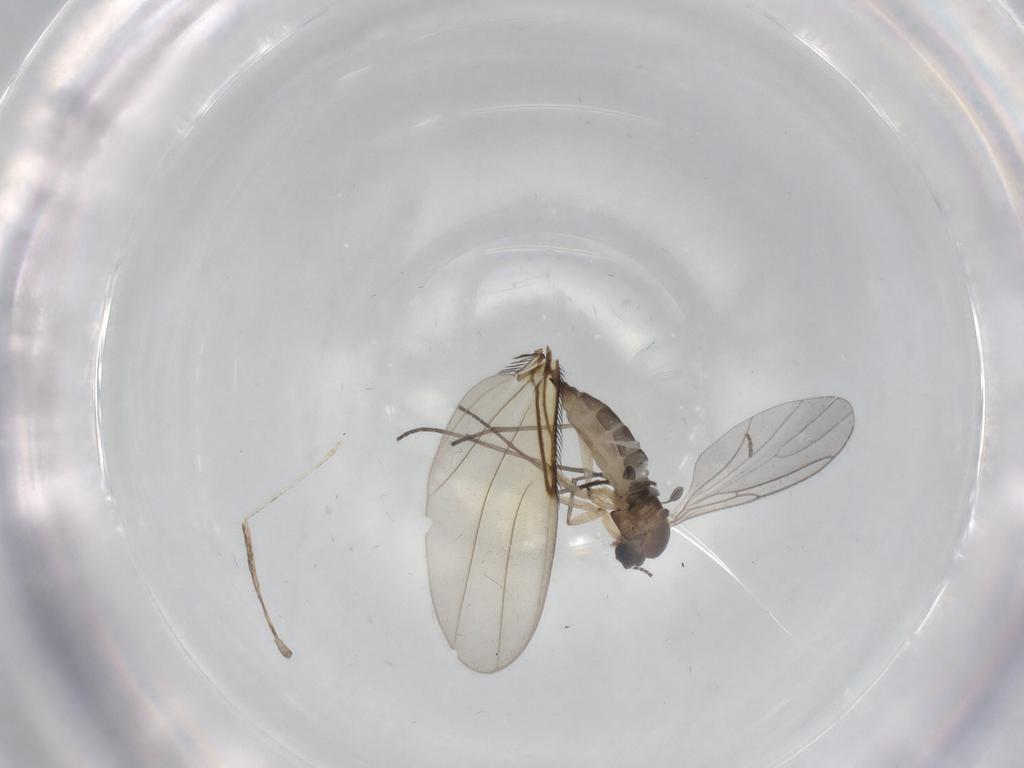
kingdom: Animalia
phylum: Arthropoda
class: Insecta
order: Diptera
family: Sciaridae
